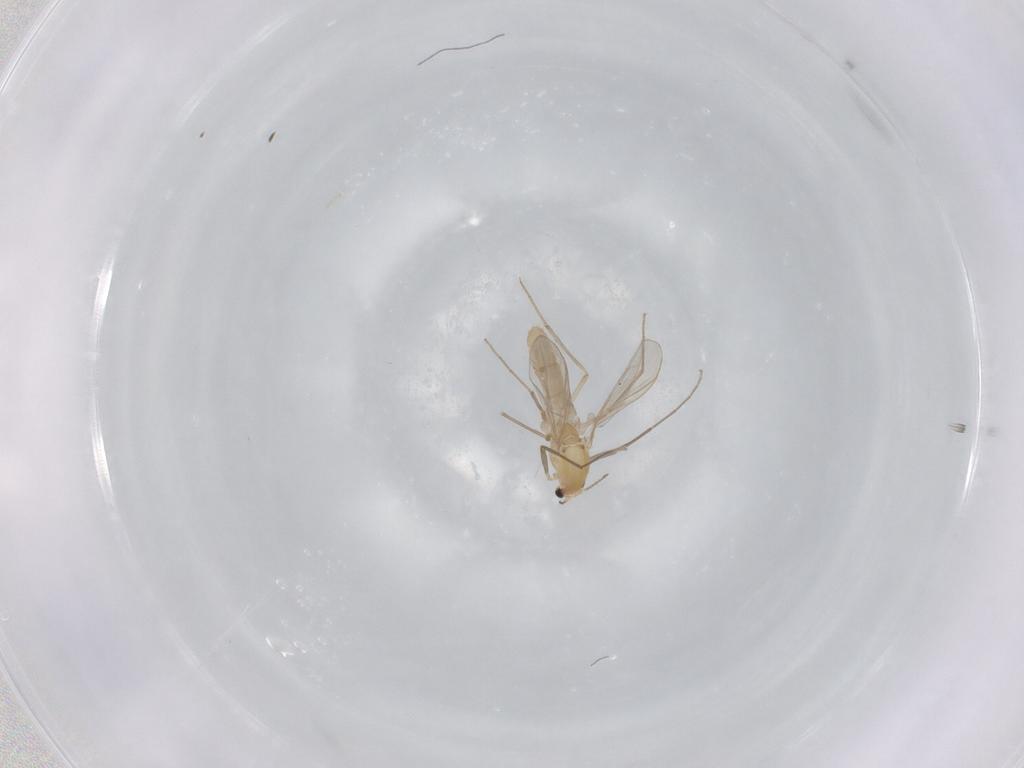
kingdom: Animalia
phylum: Arthropoda
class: Insecta
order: Diptera
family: Chironomidae
